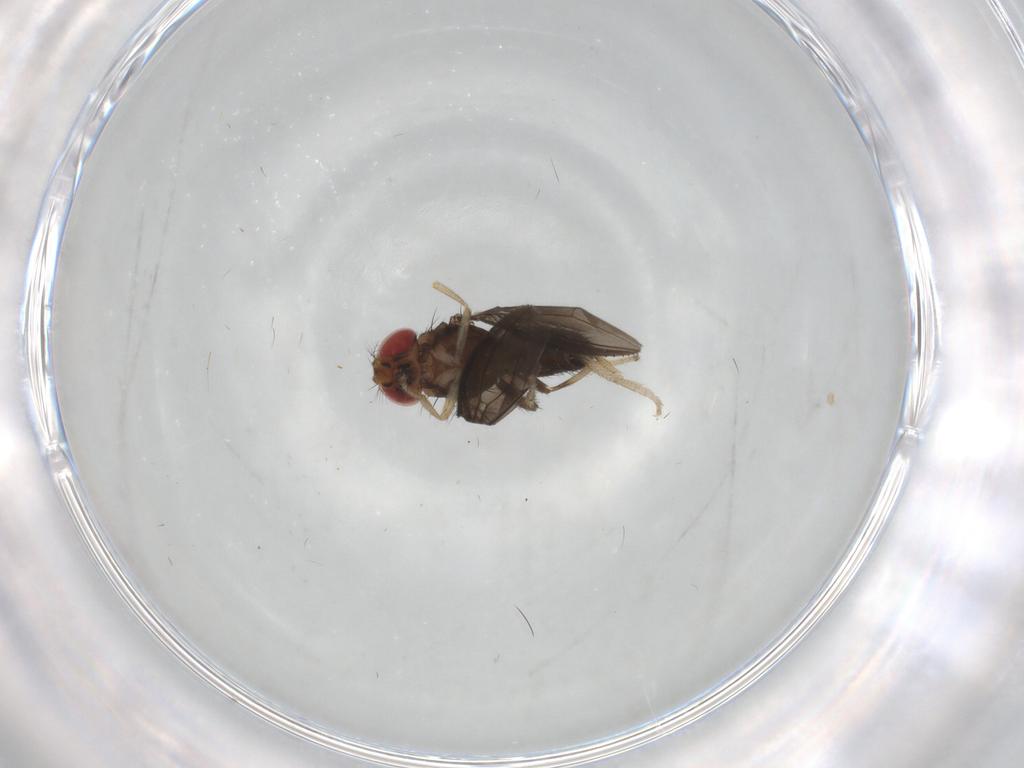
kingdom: Animalia
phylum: Arthropoda
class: Insecta
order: Diptera
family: Drosophilidae
